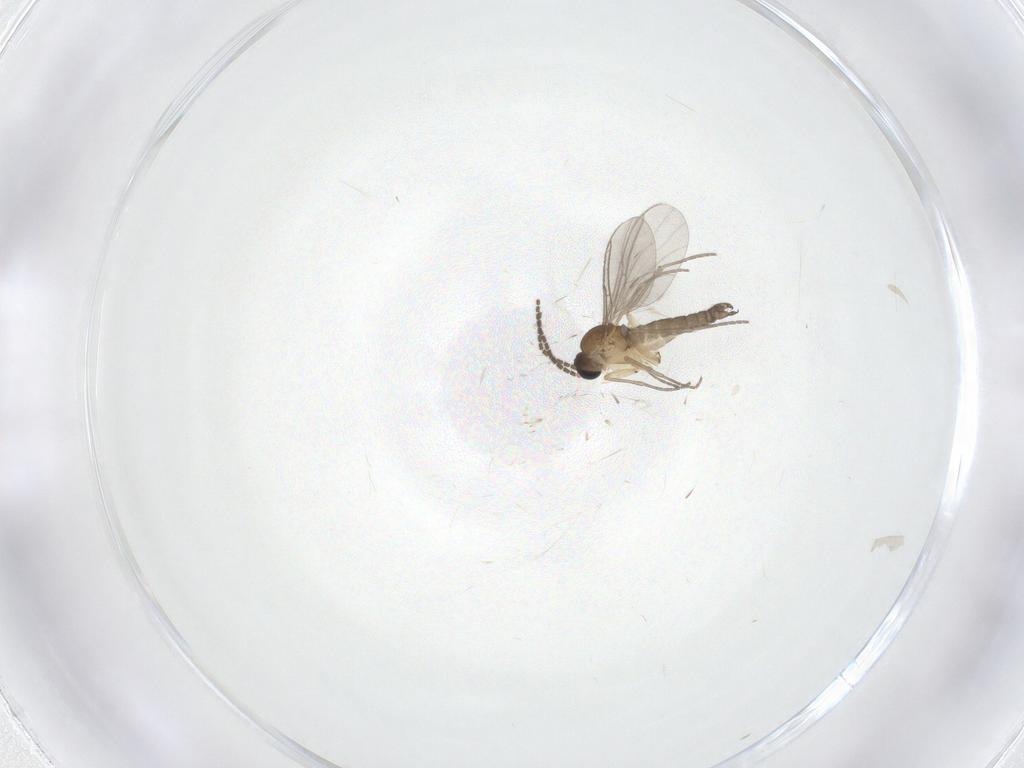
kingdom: Animalia
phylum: Arthropoda
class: Insecta
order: Diptera
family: Sciaridae
